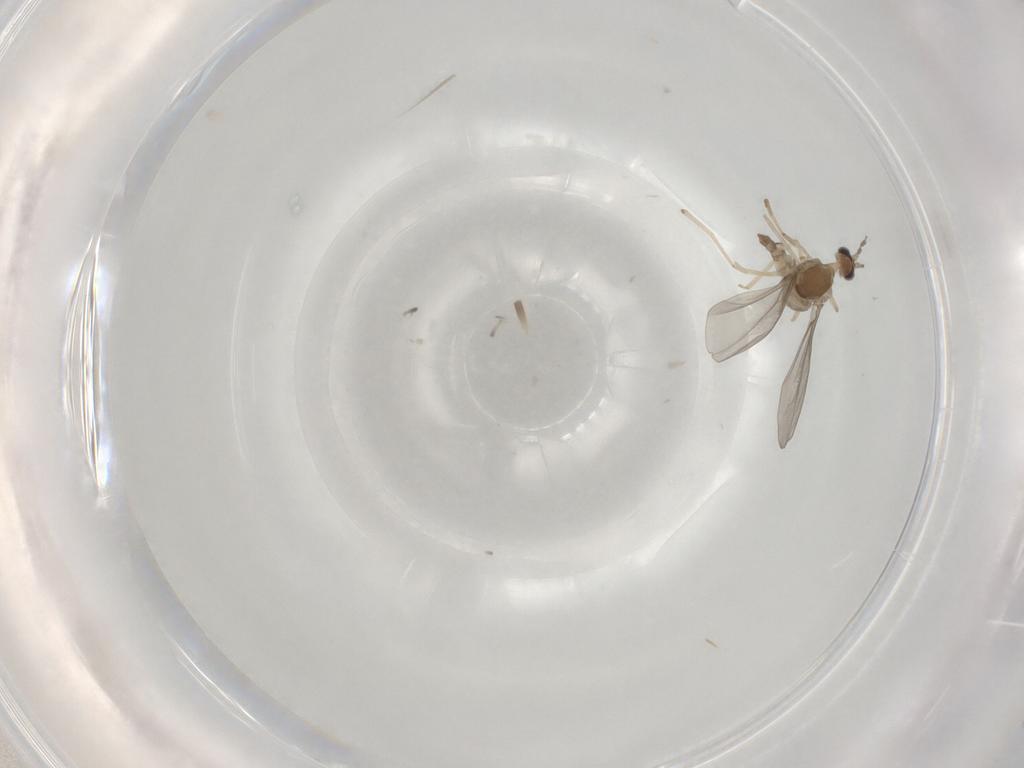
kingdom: Animalia
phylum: Arthropoda
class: Insecta
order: Diptera
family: Cecidomyiidae
